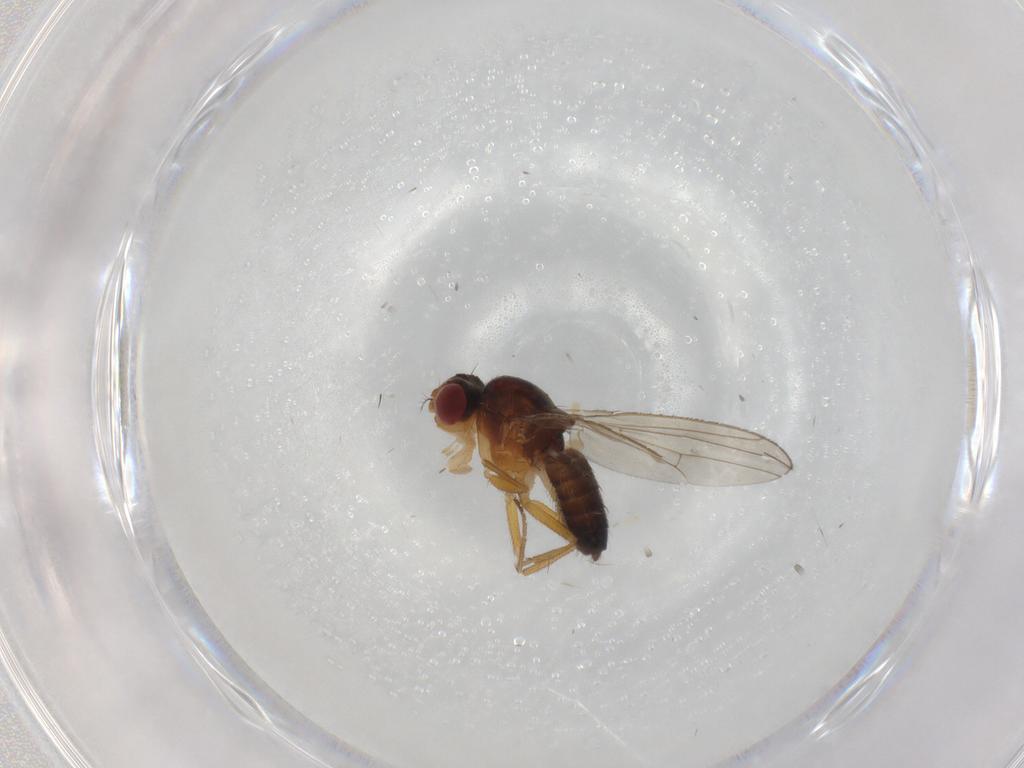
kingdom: Animalia
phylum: Arthropoda
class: Insecta
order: Diptera
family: Drosophilidae
